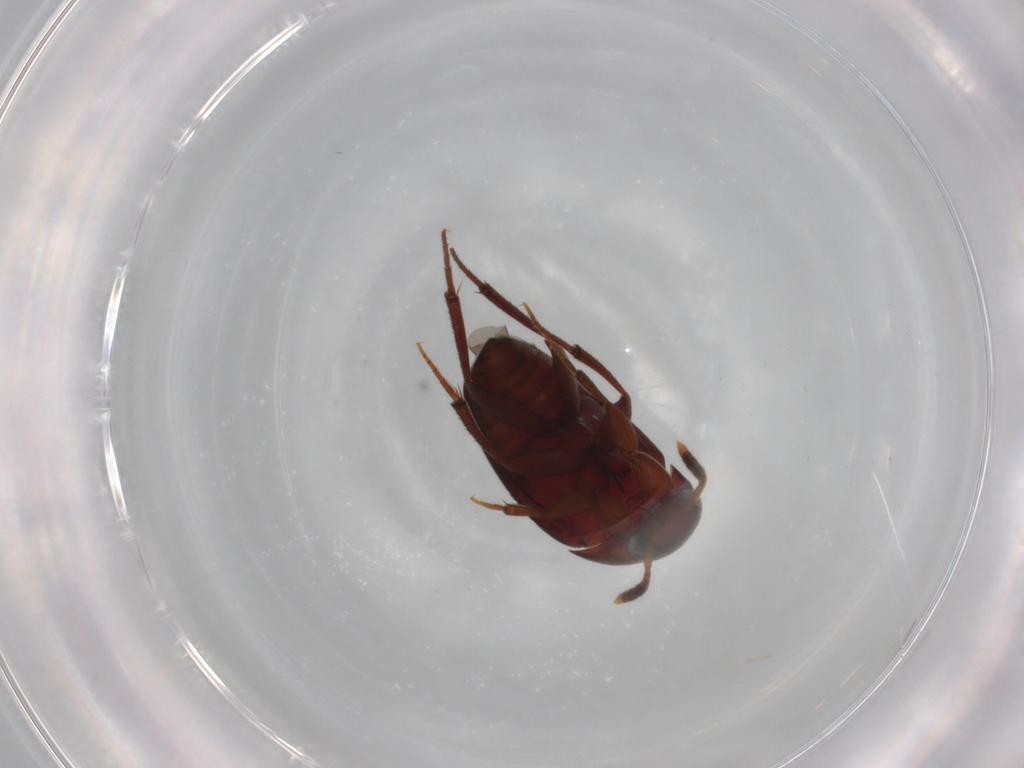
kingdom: Animalia
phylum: Arthropoda
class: Insecta
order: Coleoptera
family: Leiodidae
